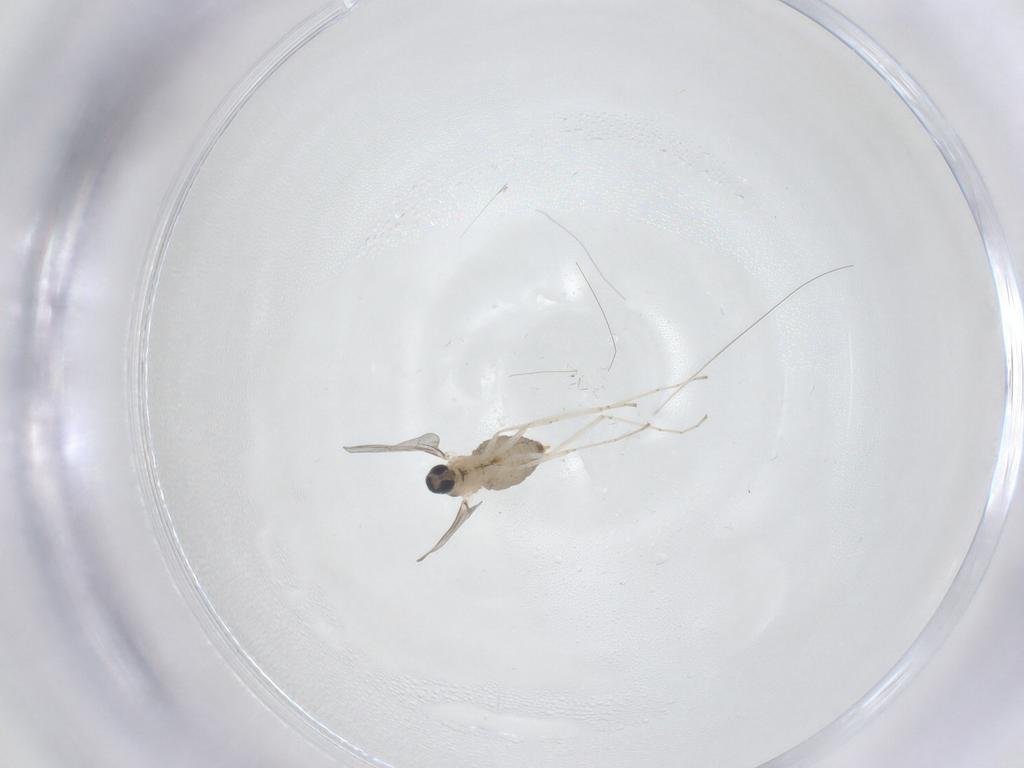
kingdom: Animalia
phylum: Arthropoda
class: Insecta
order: Diptera
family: Cecidomyiidae
